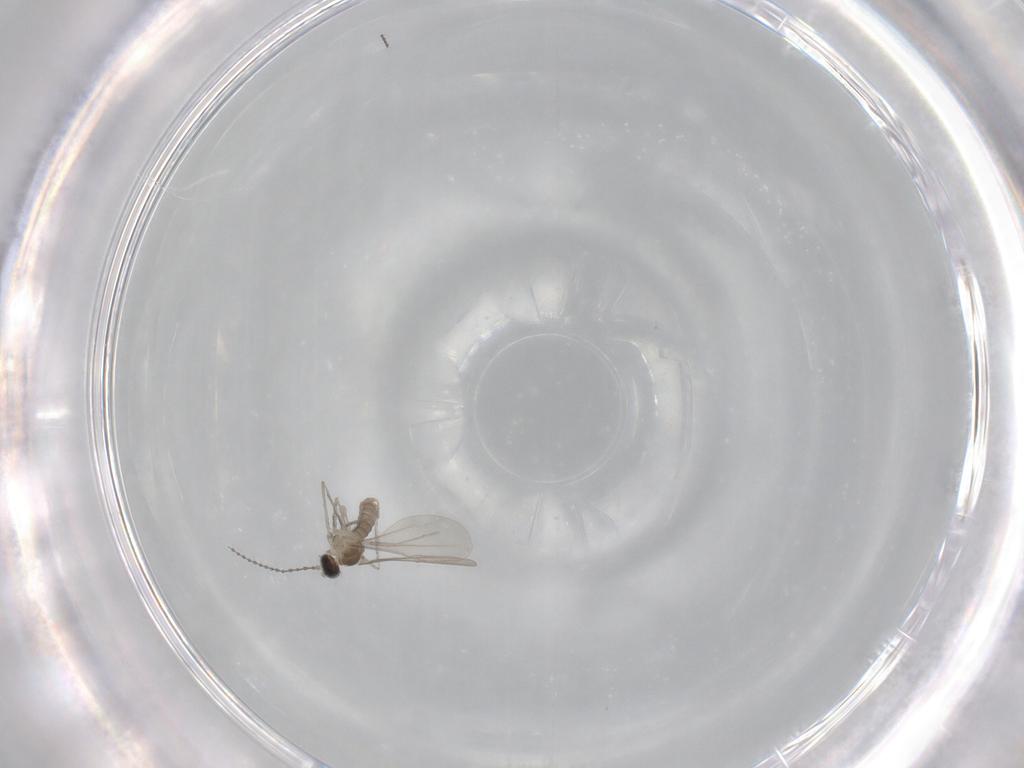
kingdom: Animalia
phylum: Arthropoda
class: Insecta
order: Diptera
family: Cecidomyiidae
